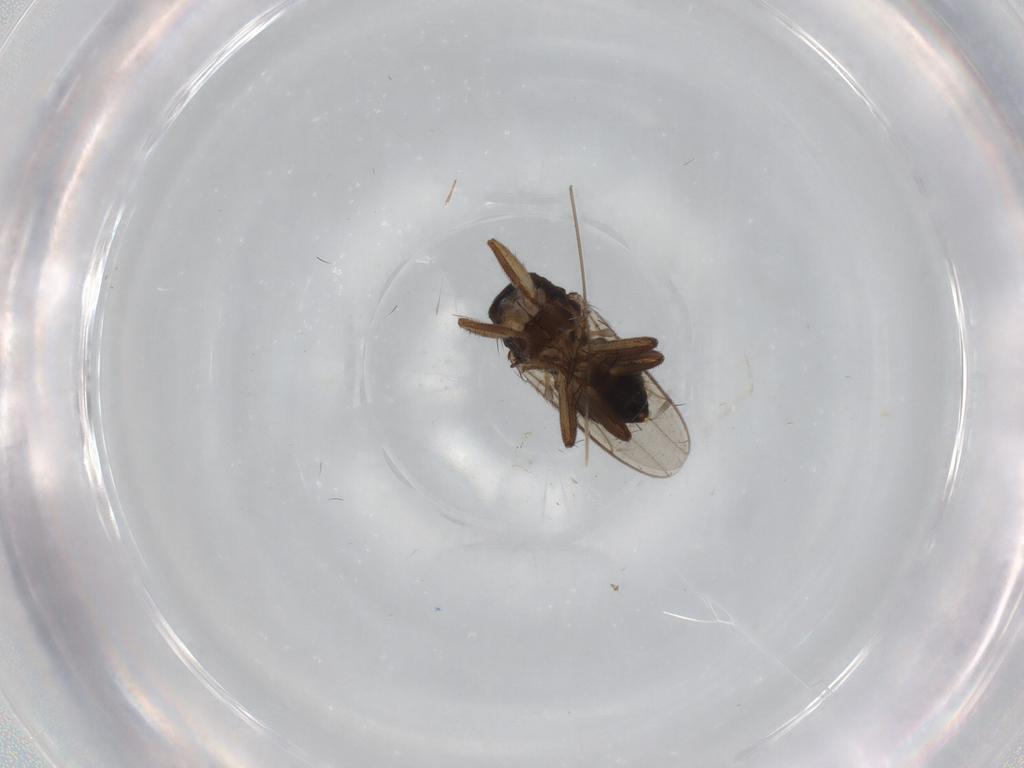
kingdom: Animalia
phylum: Arthropoda
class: Insecta
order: Diptera
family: Sphaeroceridae
